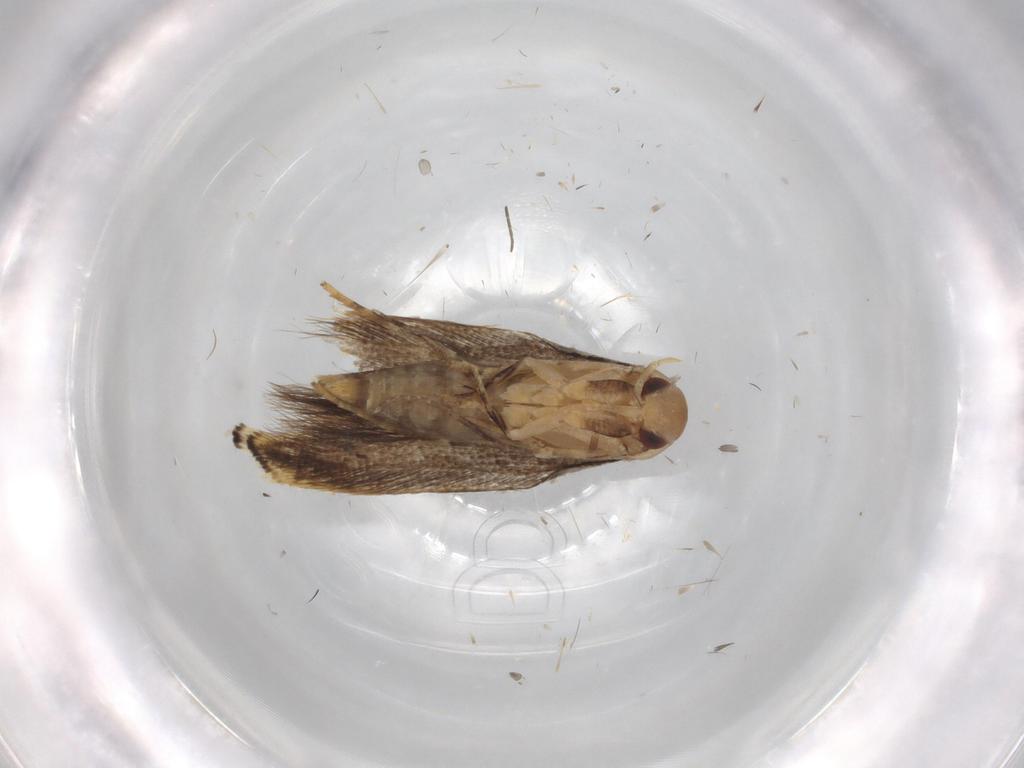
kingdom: Animalia
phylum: Arthropoda
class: Insecta
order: Lepidoptera
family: Momphidae
